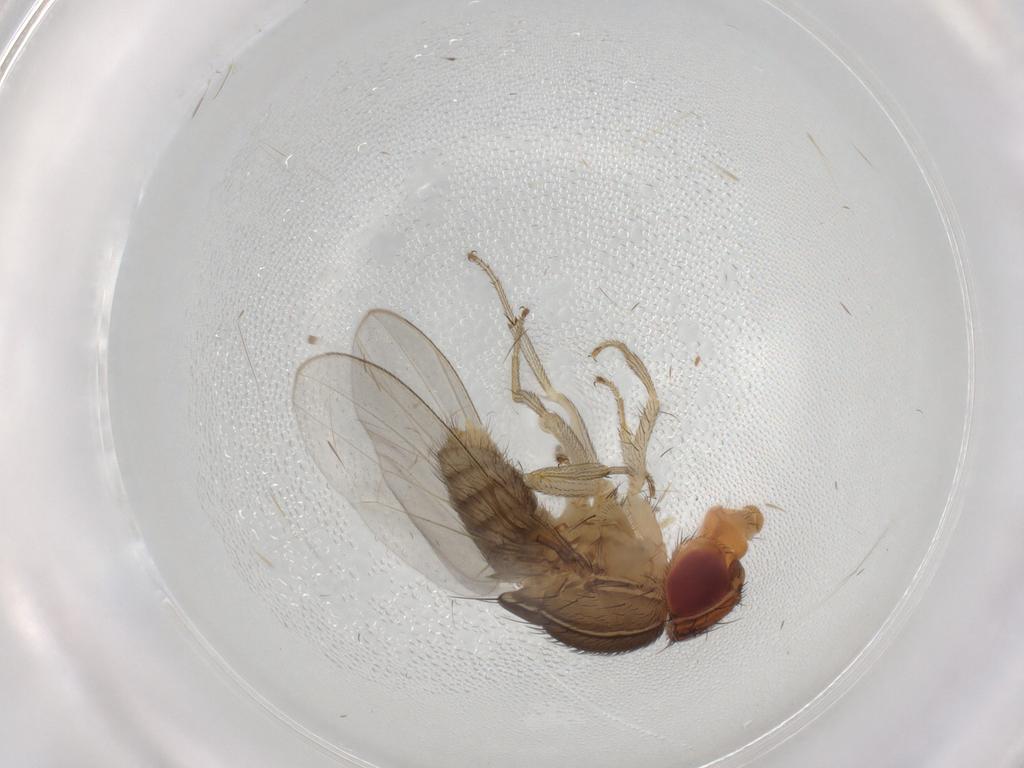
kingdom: Animalia
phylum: Arthropoda
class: Insecta
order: Diptera
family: Drosophilidae
